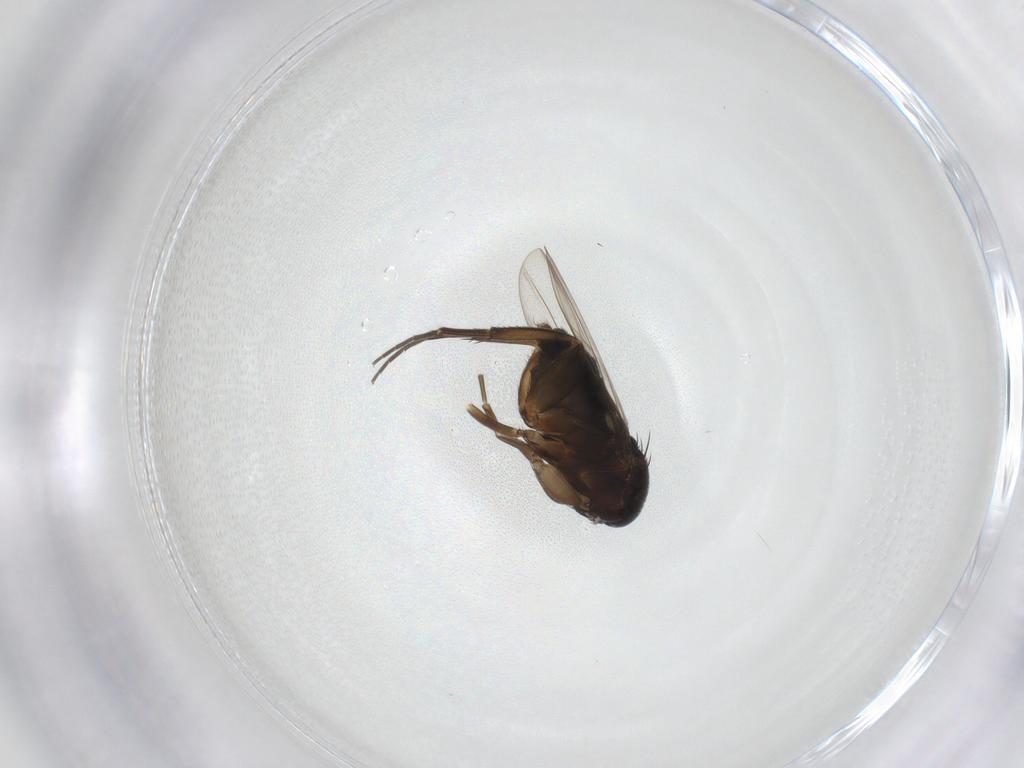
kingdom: Animalia
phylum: Arthropoda
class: Insecta
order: Diptera
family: Phoridae
